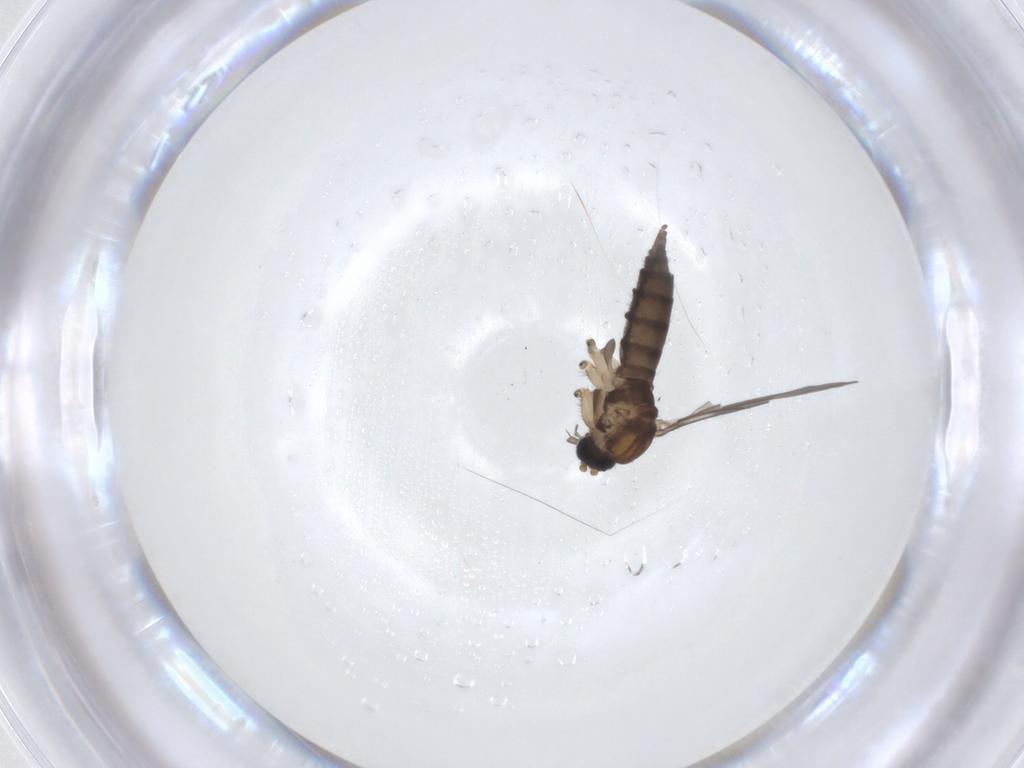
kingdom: Animalia
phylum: Arthropoda
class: Insecta
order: Diptera
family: Sciaridae
